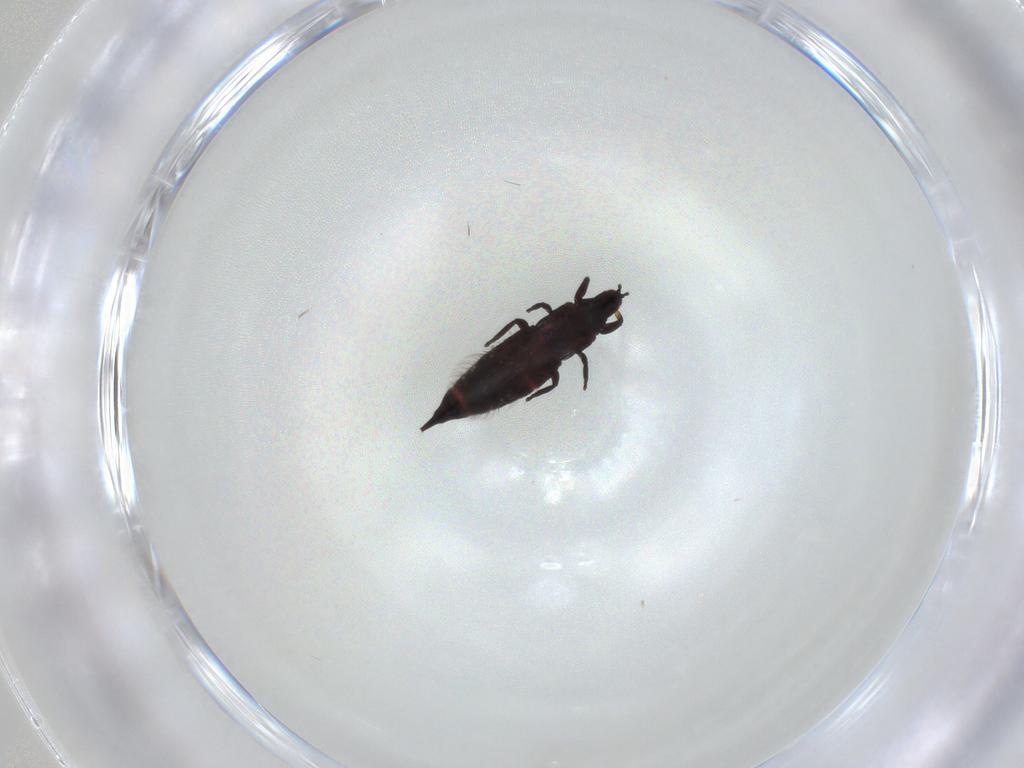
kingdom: Animalia
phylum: Arthropoda
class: Insecta
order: Thysanoptera
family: Phlaeothripidae
